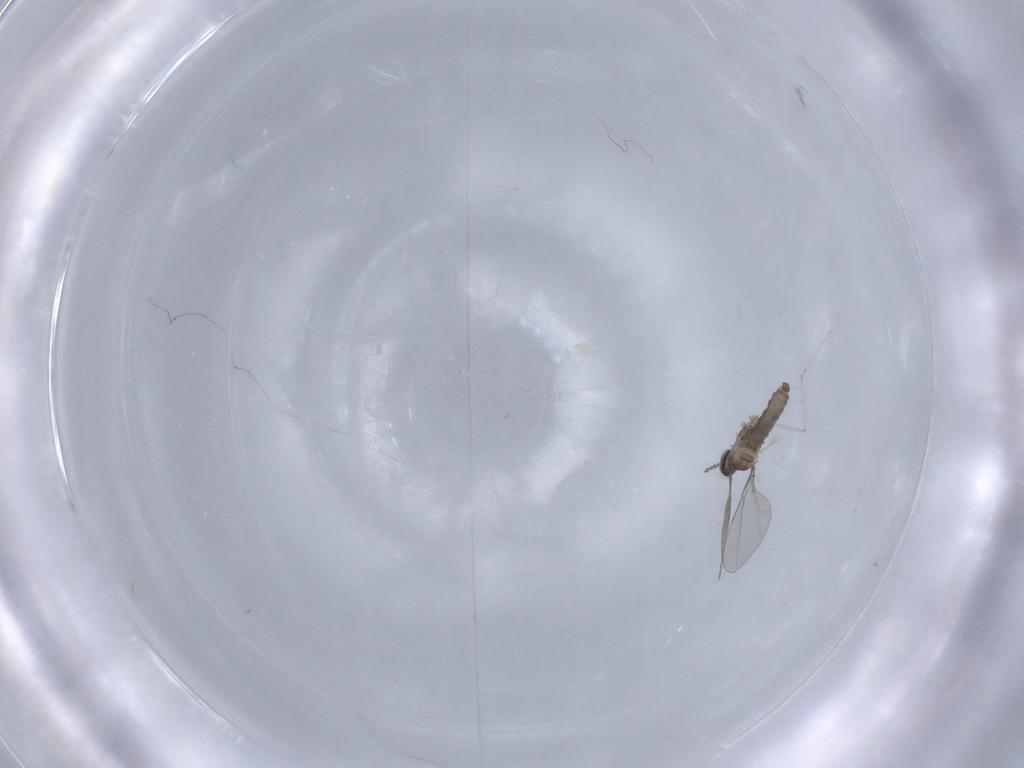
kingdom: Animalia
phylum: Arthropoda
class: Insecta
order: Diptera
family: Cecidomyiidae
